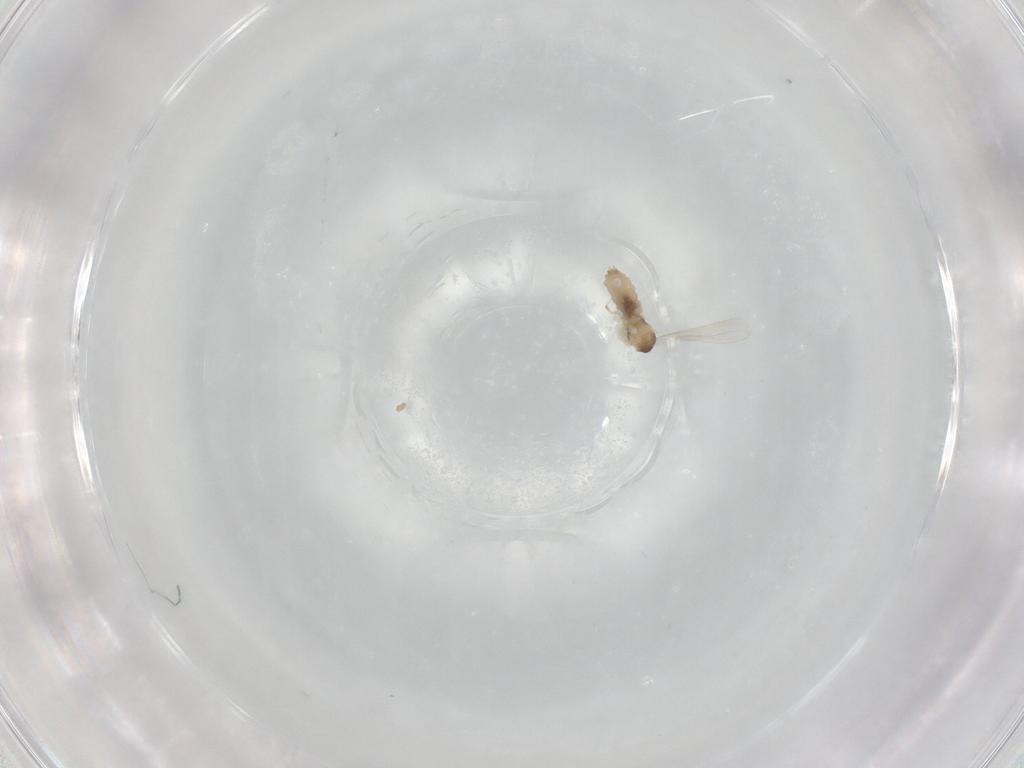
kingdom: Animalia
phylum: Arthropoda
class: Insecta
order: Diptera
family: Cecidomyiidae
